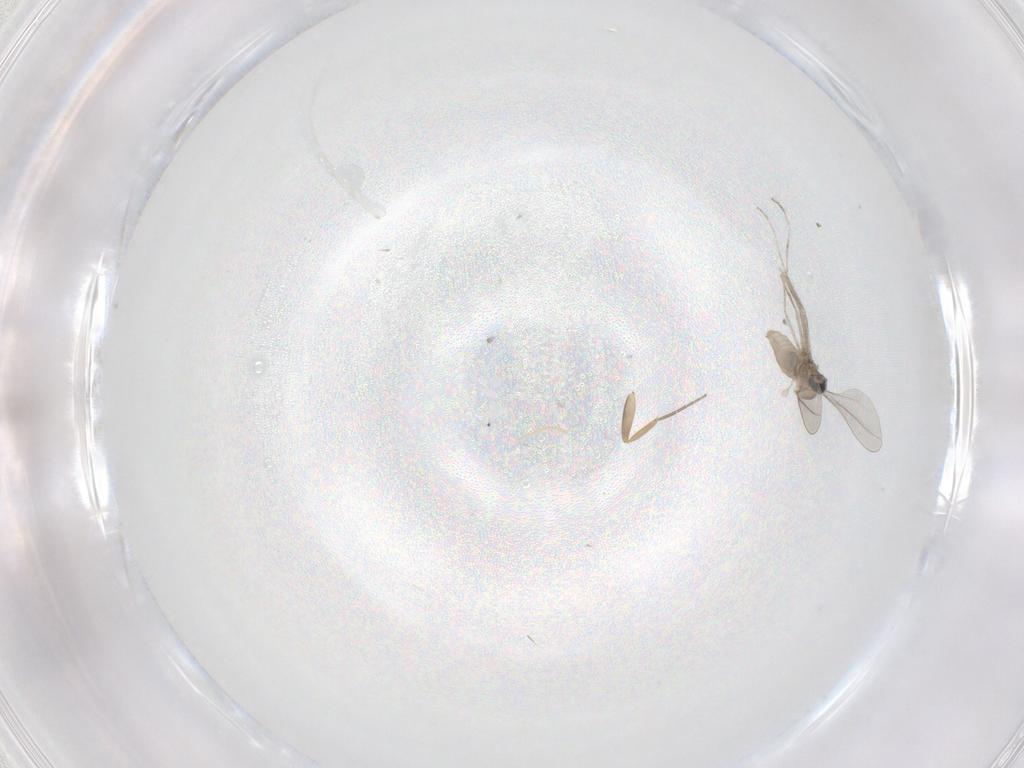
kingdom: Animalia
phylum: Arthropoda
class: Insecta
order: Diptera
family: Cecidomyiidae
